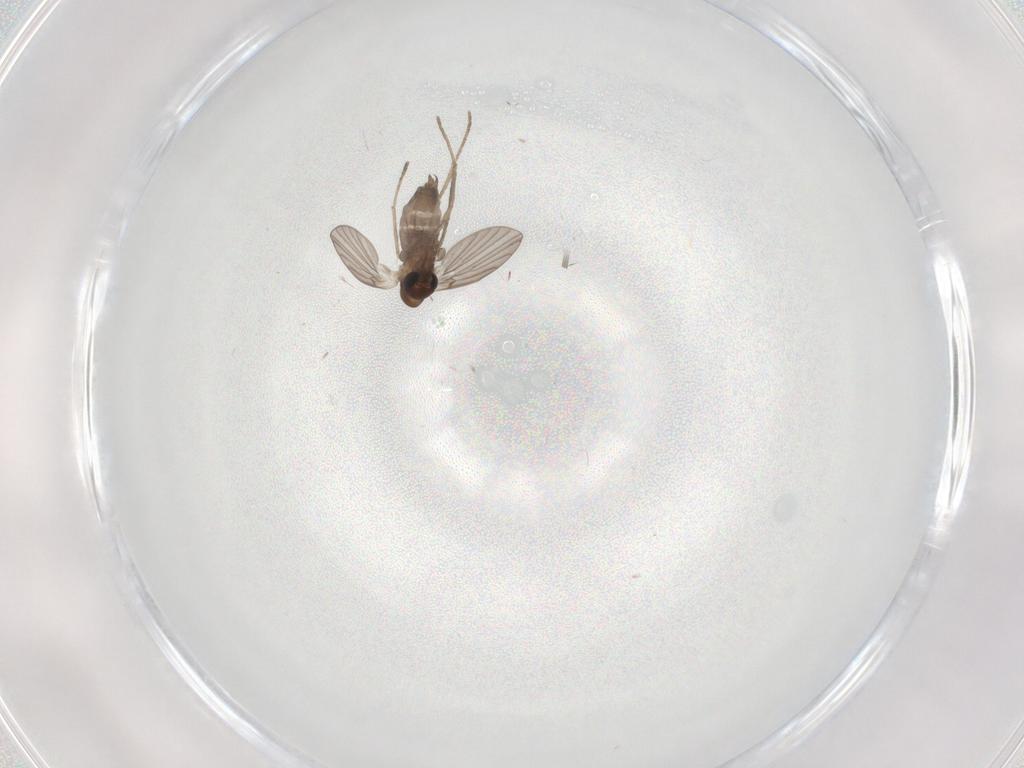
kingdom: Animalia
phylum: Arthropoda
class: Insecta
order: Diptera
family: Psychodidae
